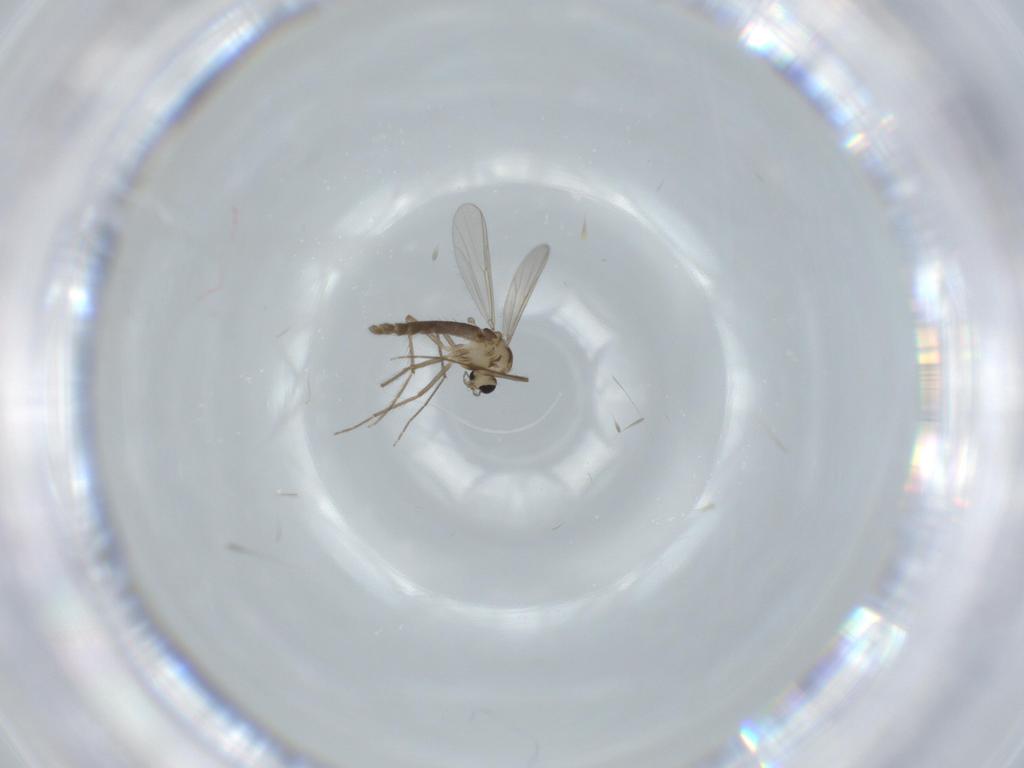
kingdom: Animalia
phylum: Arthropoda
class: Insecta
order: Diptera
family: Chironomidae
